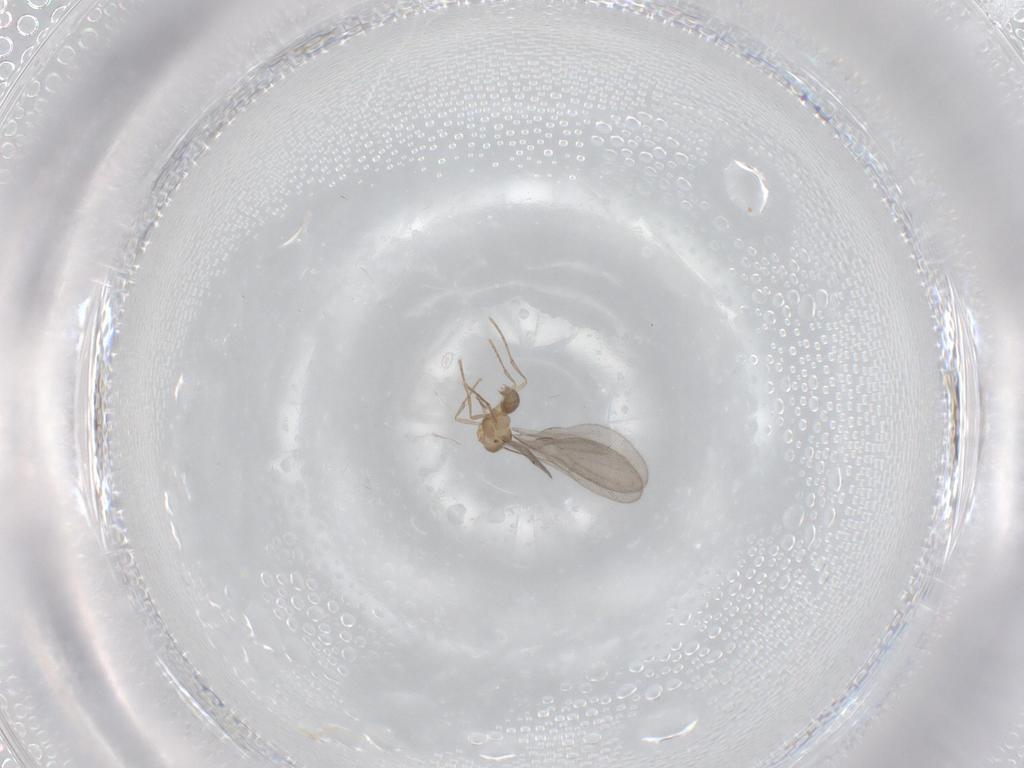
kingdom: Animalia
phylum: Arthropoda
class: Insecta
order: Hymenoptera
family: Formicidae
